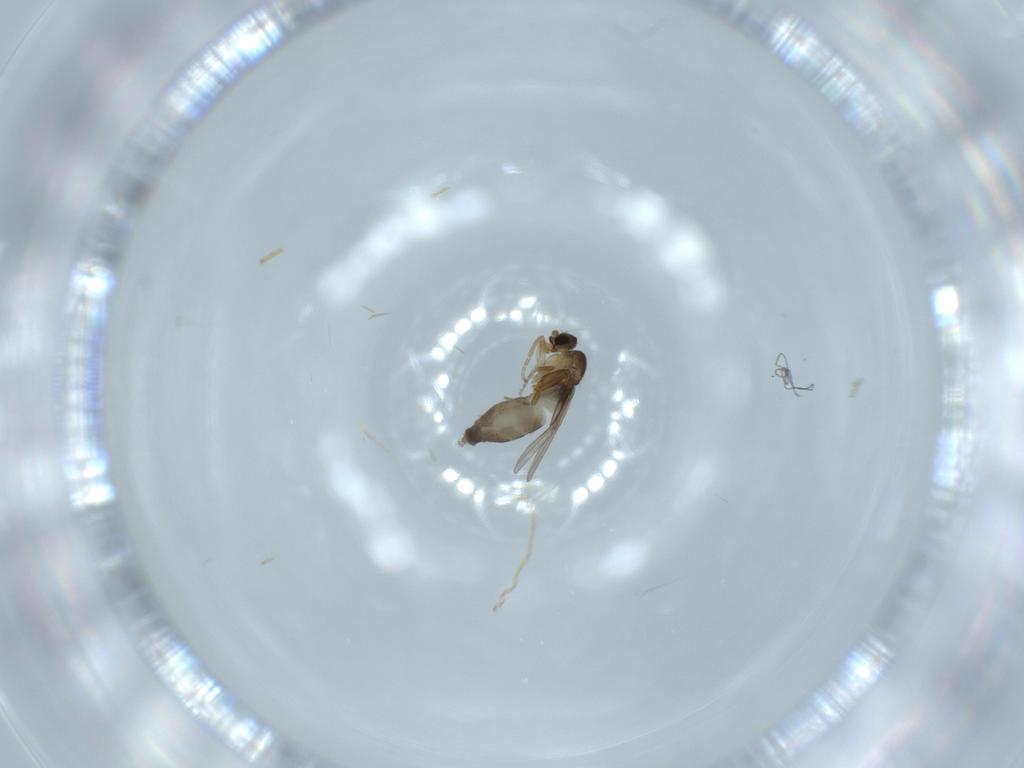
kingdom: Animalia
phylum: Arthropoda
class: Insecta
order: Diptera
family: Phoridae
